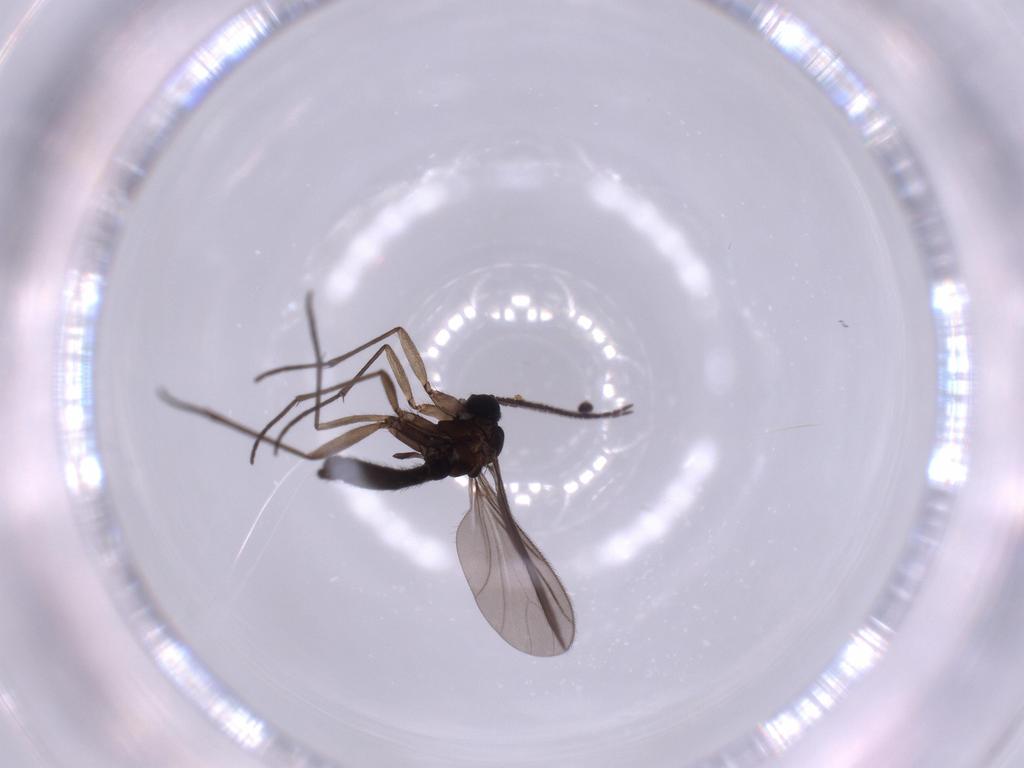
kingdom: Animalia
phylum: Arthropoda
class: Insecta
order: Diptera
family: Sciaridae
